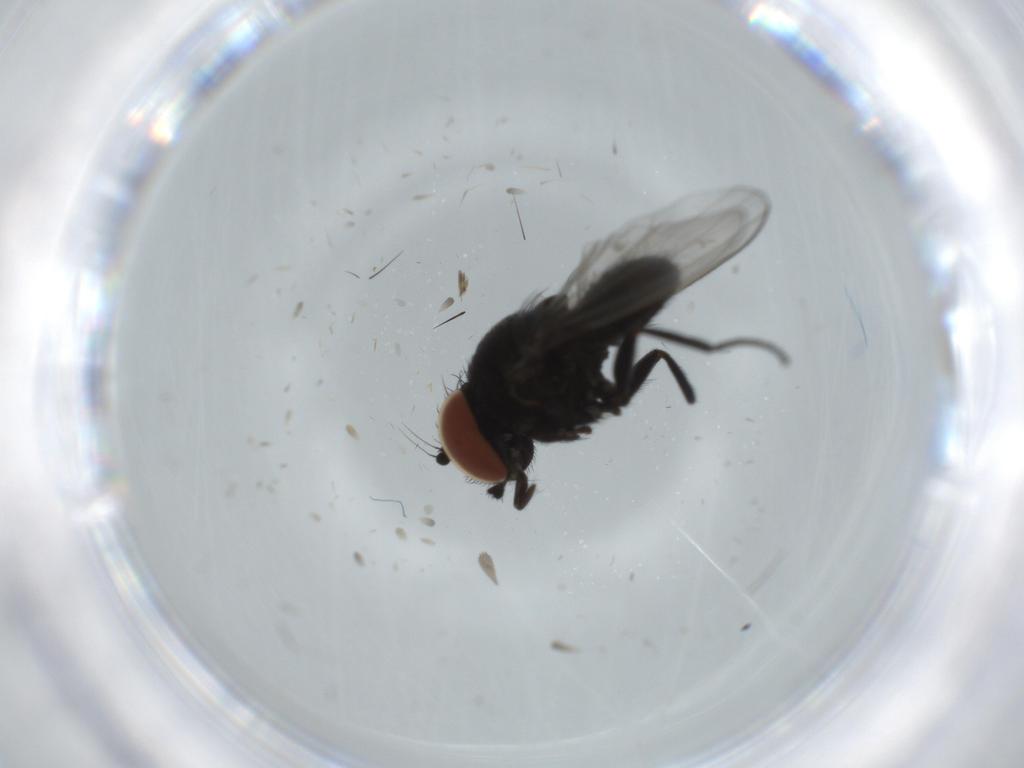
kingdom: Animalia
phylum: Arthropoda
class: Insecta
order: Diptera
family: Milichiidae
